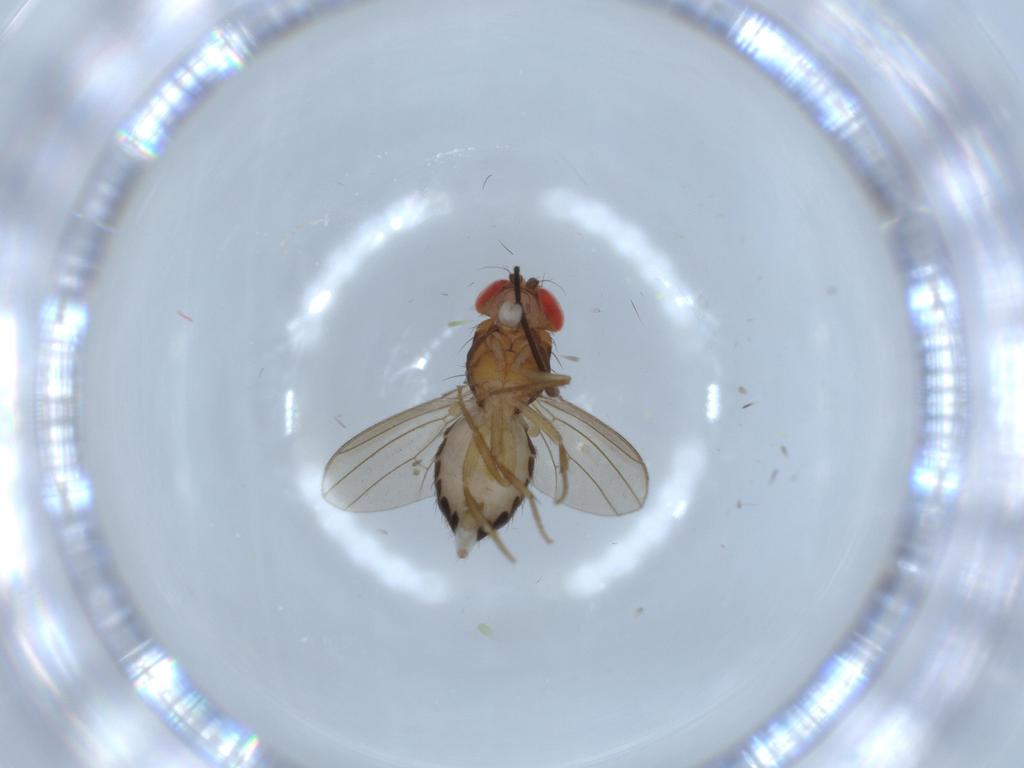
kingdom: Animalia
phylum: Arthropoda
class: Insecta
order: Diptera
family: Drosophilidae
